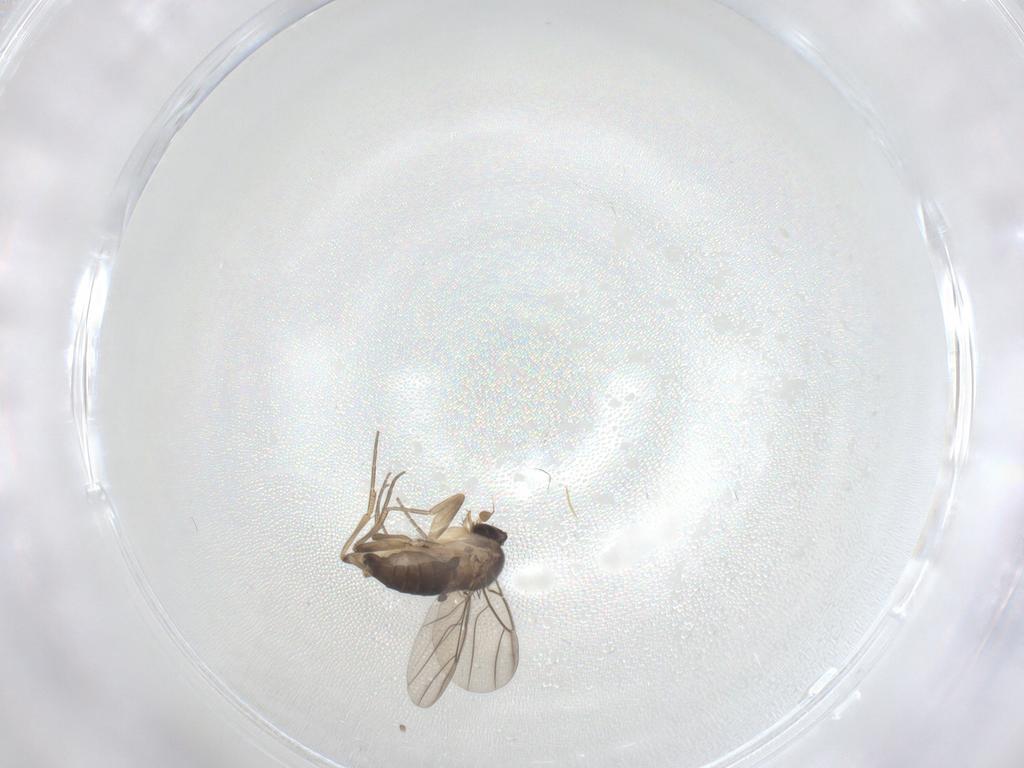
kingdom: Animalia
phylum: Arthropoda
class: Insecta
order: Diptera
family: Phoridae
